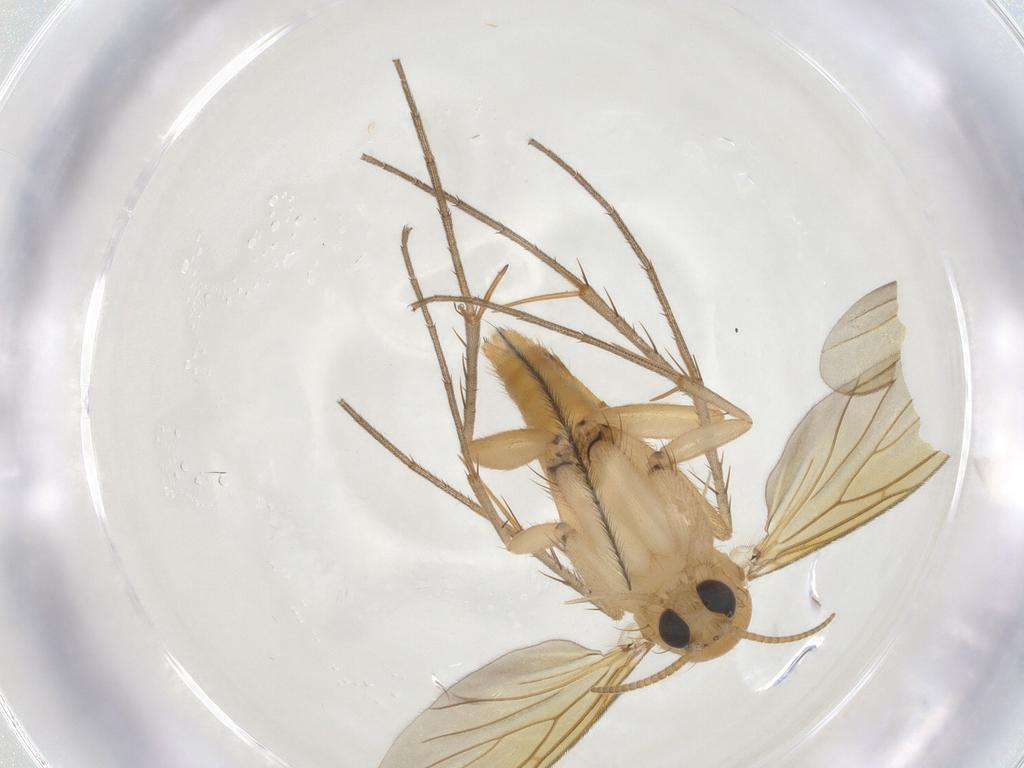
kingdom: Animalia
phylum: Arthropoda
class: Insecta
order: Diptera
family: Mycetophilidae
